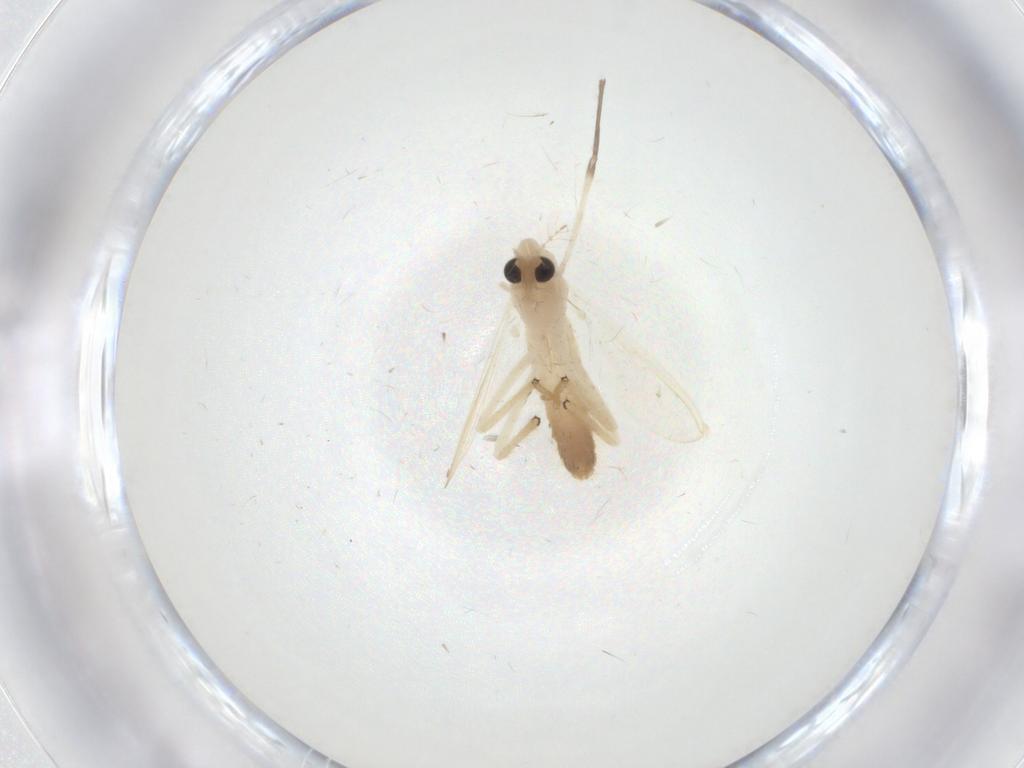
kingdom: Animalia
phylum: Arthropoda
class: Insecta
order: Diptera
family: Chironomidae
